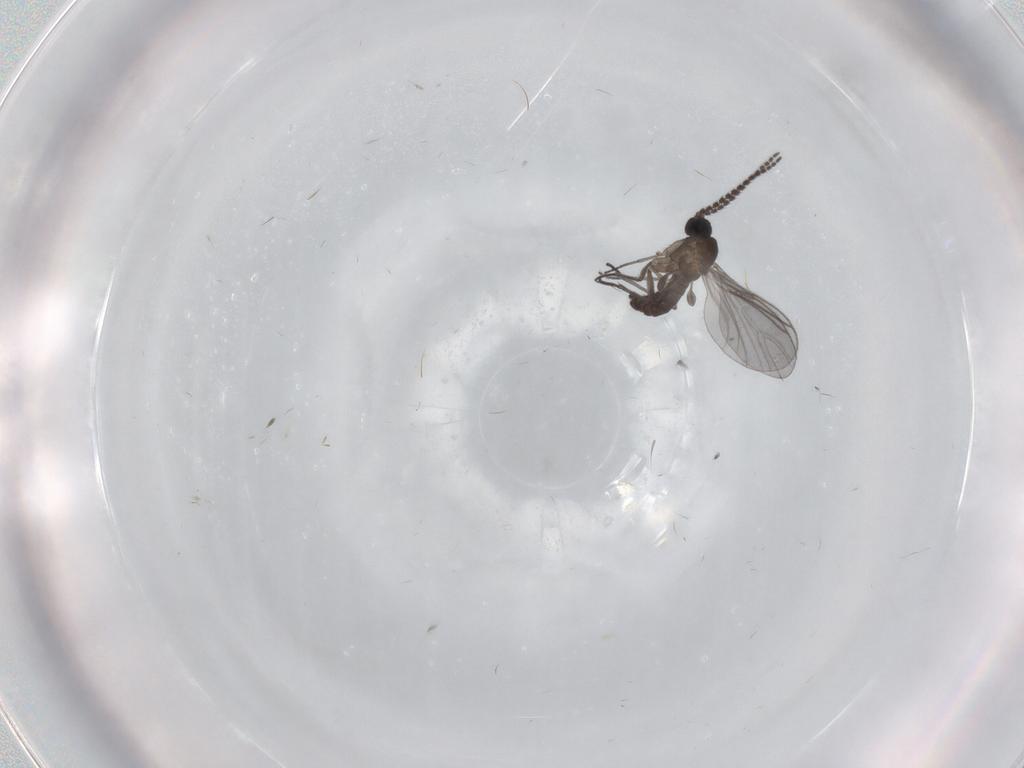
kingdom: Animalia
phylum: Arthropoda
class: Insecta
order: Diptera
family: Sciaridae
